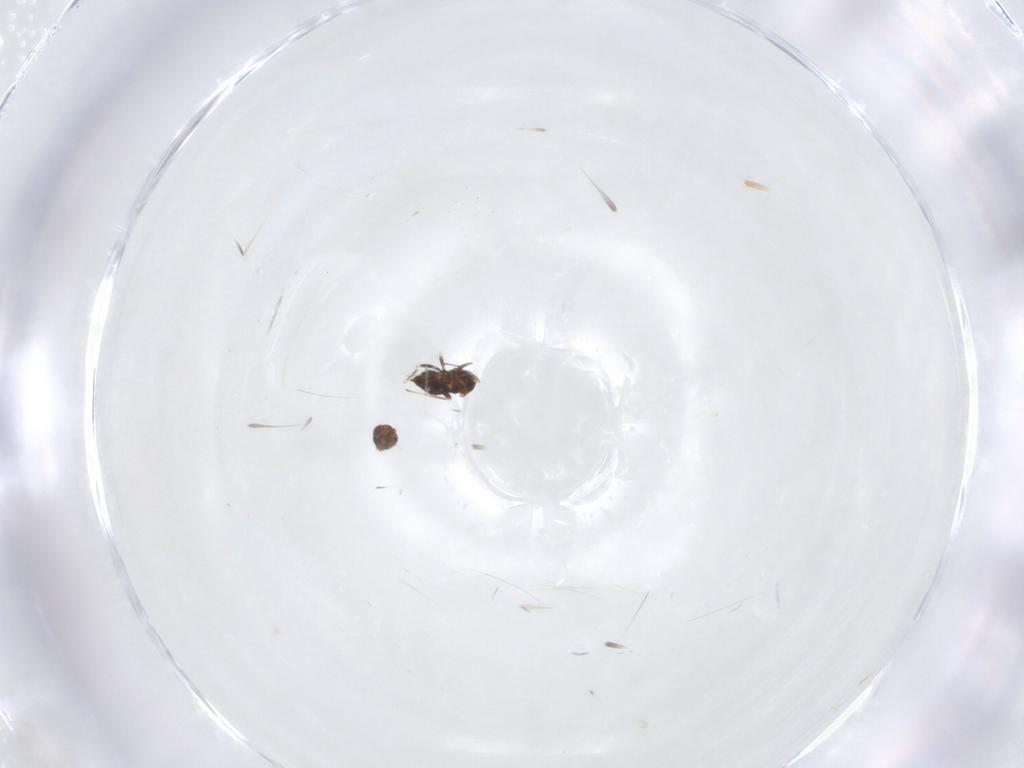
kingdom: Animalia
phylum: Arthropoda
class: Insecta
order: Hymenoptera
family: Trichogrammatidae
